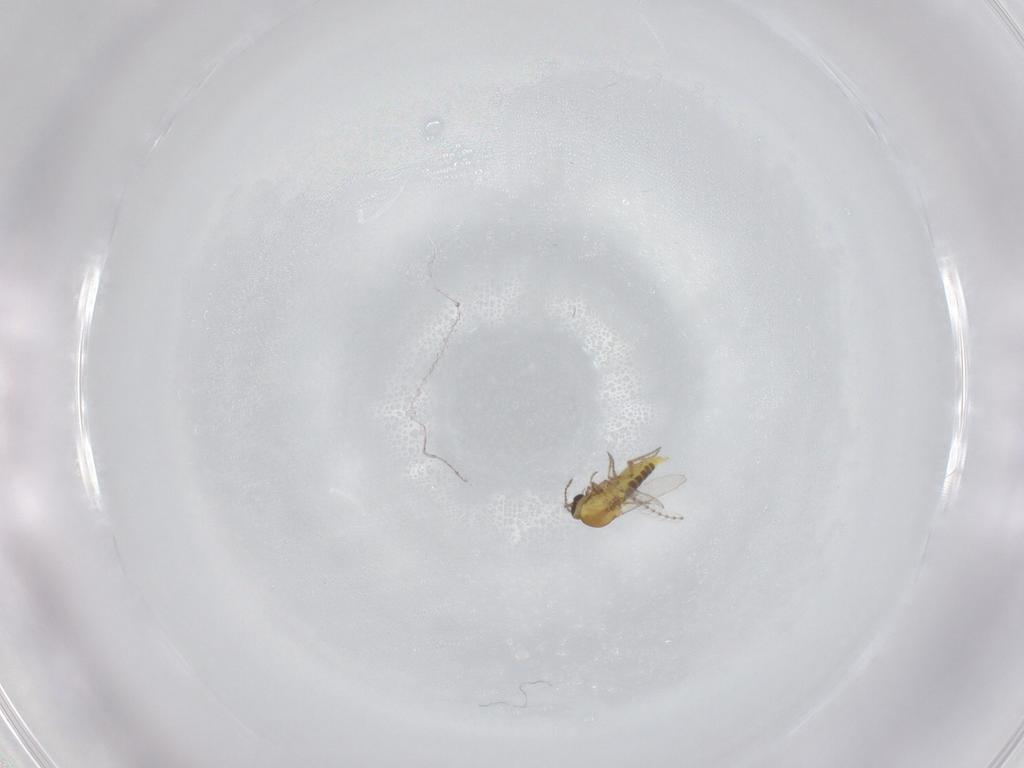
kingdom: Animalia
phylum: Arthropoda
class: Insecta
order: Diptera
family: Ceratopogonidae
